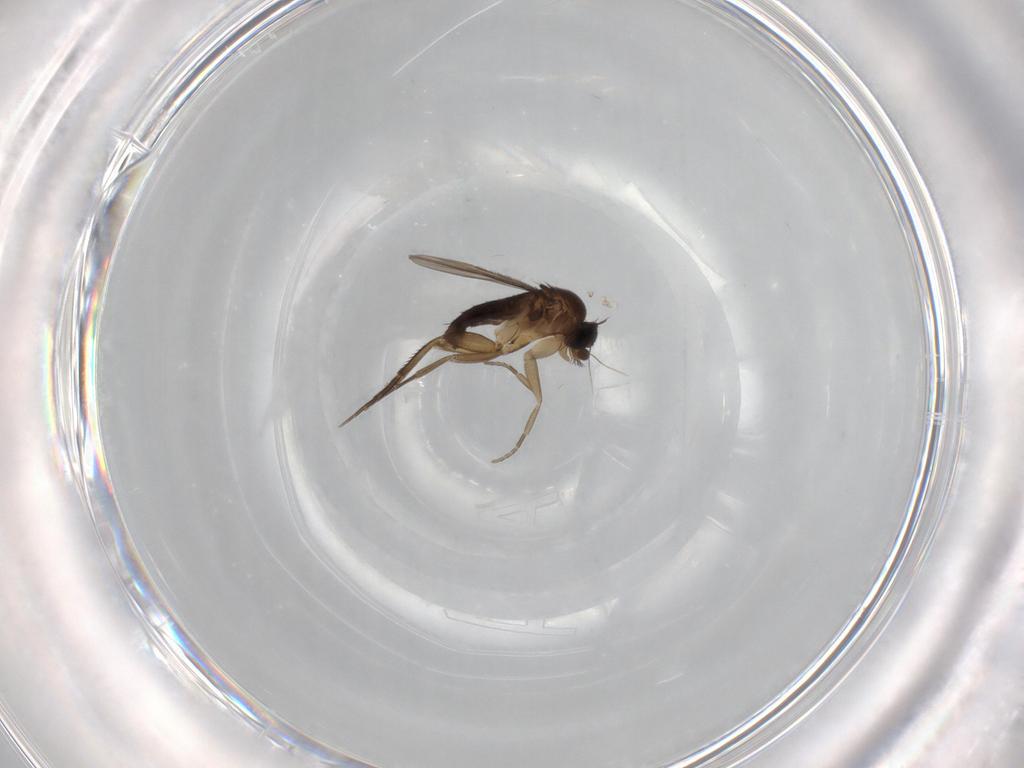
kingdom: Animalia
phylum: Arthropoda
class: Insecta
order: Diptera
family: Phoridae
